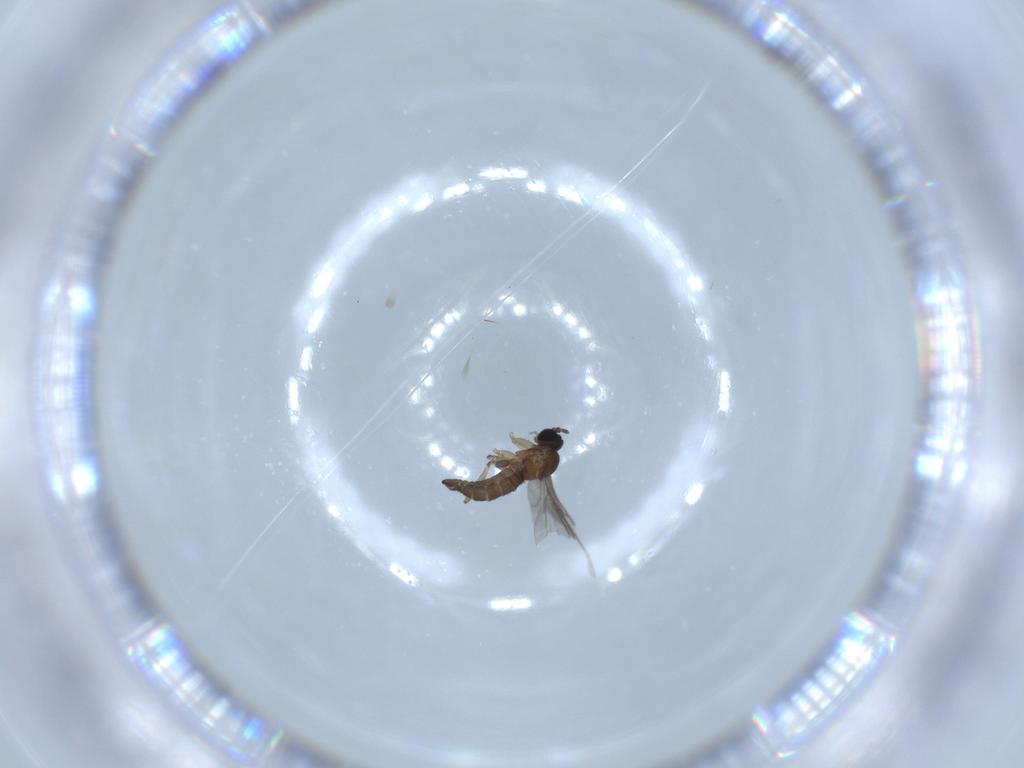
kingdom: Animalia
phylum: Arthropoda
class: Insecta
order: Diptera
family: Sciaridae
